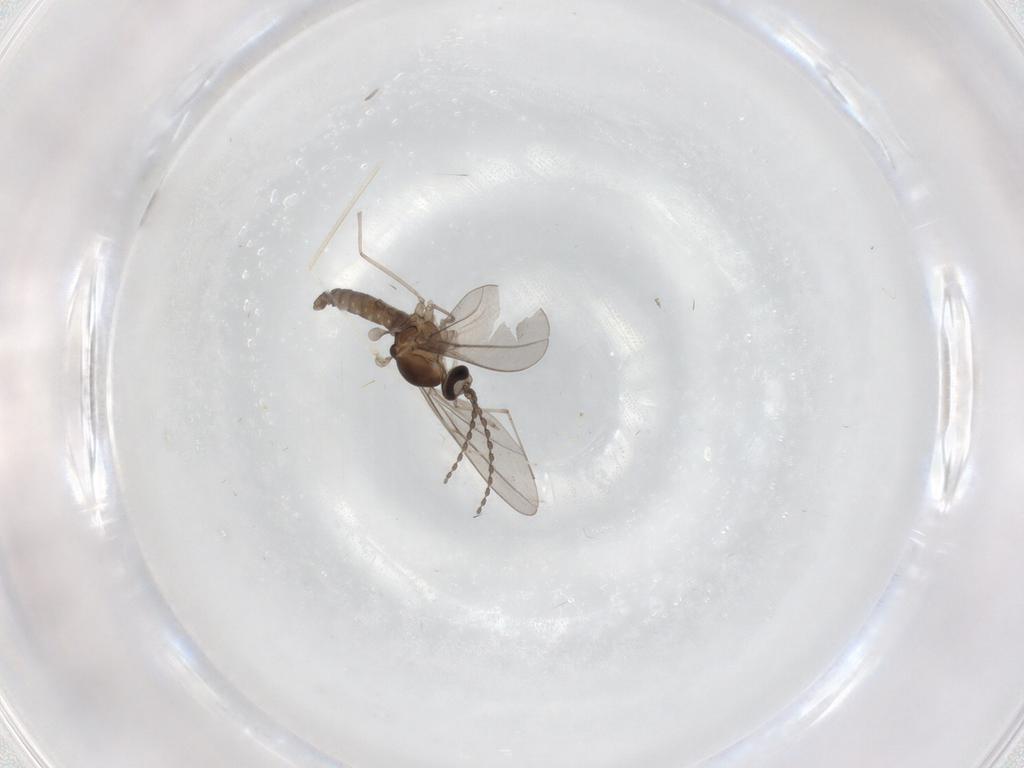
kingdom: Animalia
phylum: Arthropoda
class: Insecta
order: Diptera
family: Cecidomyiidae
